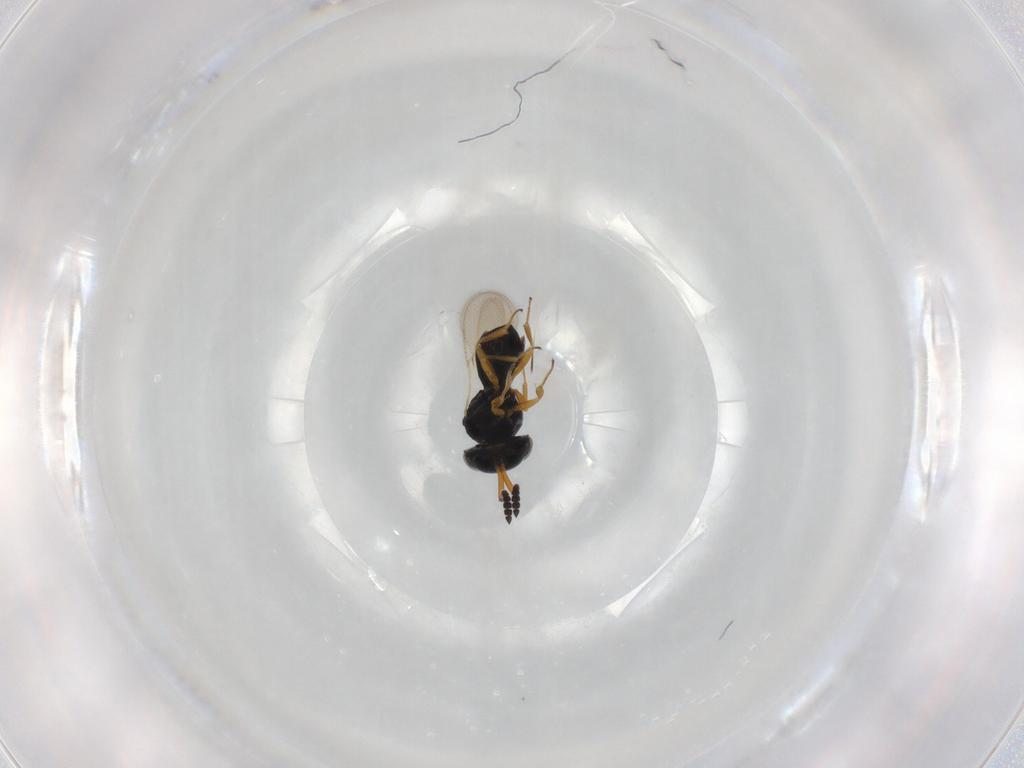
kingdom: Animalia
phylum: Arthropoda
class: Insecta
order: Hymenoptera
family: Scelionidae
